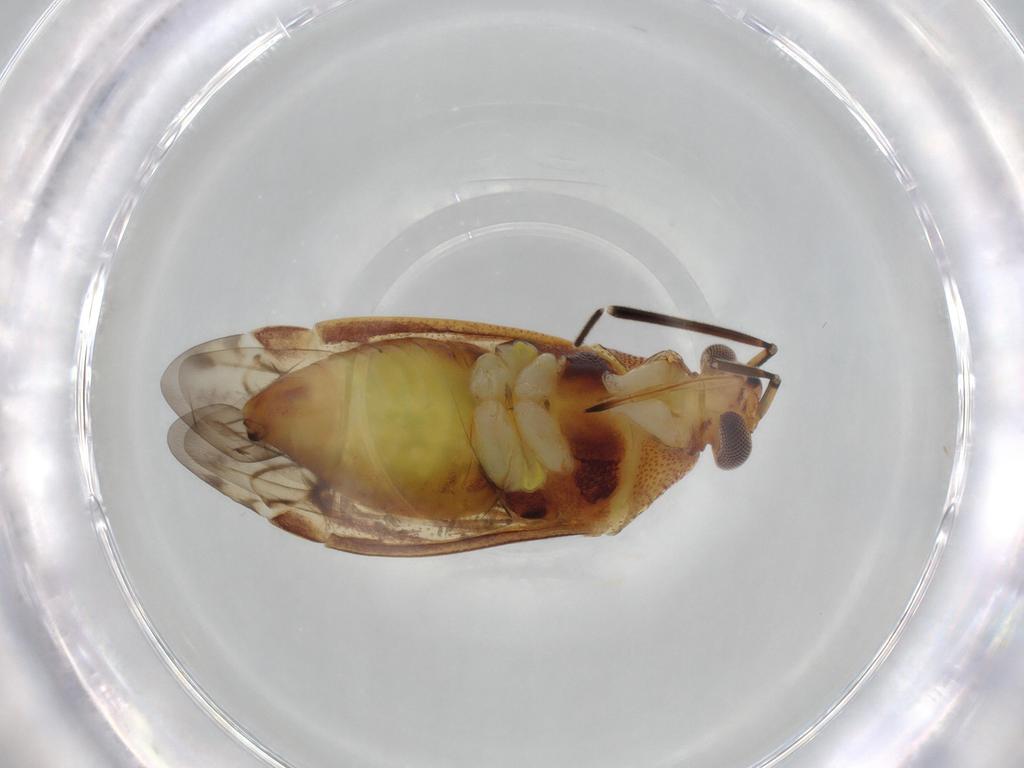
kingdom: Animalia
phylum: Arthropoda
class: Insecta
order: Hemiptera
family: Miridae
